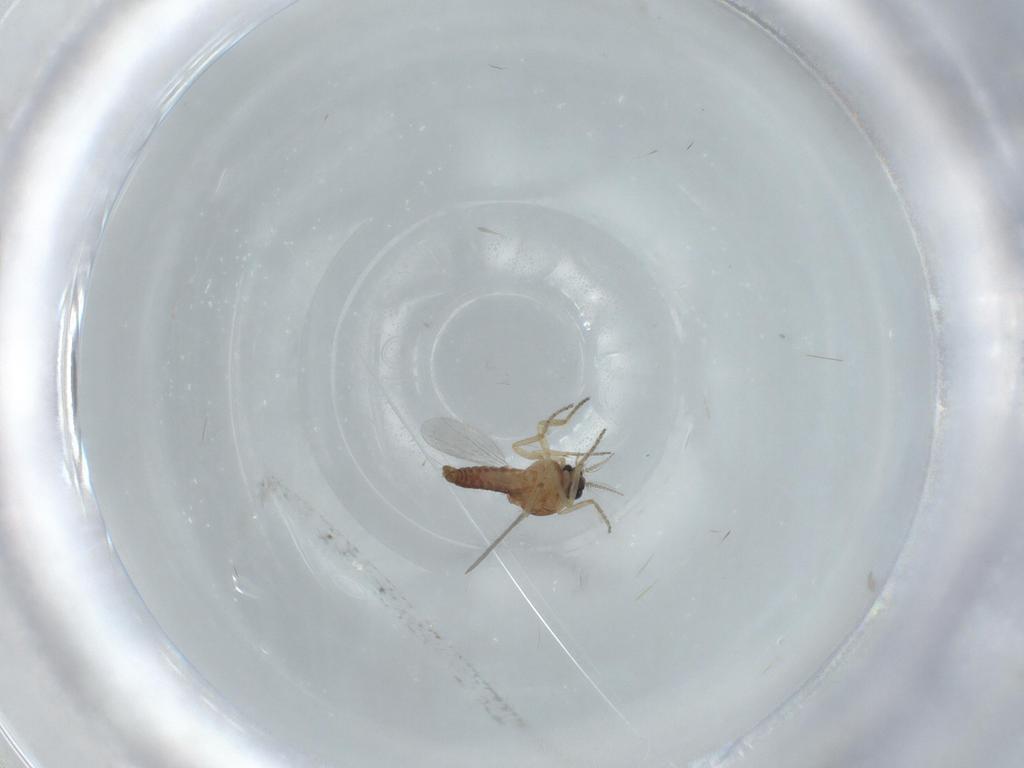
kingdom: Animalia
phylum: Arthropoda
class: Insecta
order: Diptera
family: Ceratopogonidae
